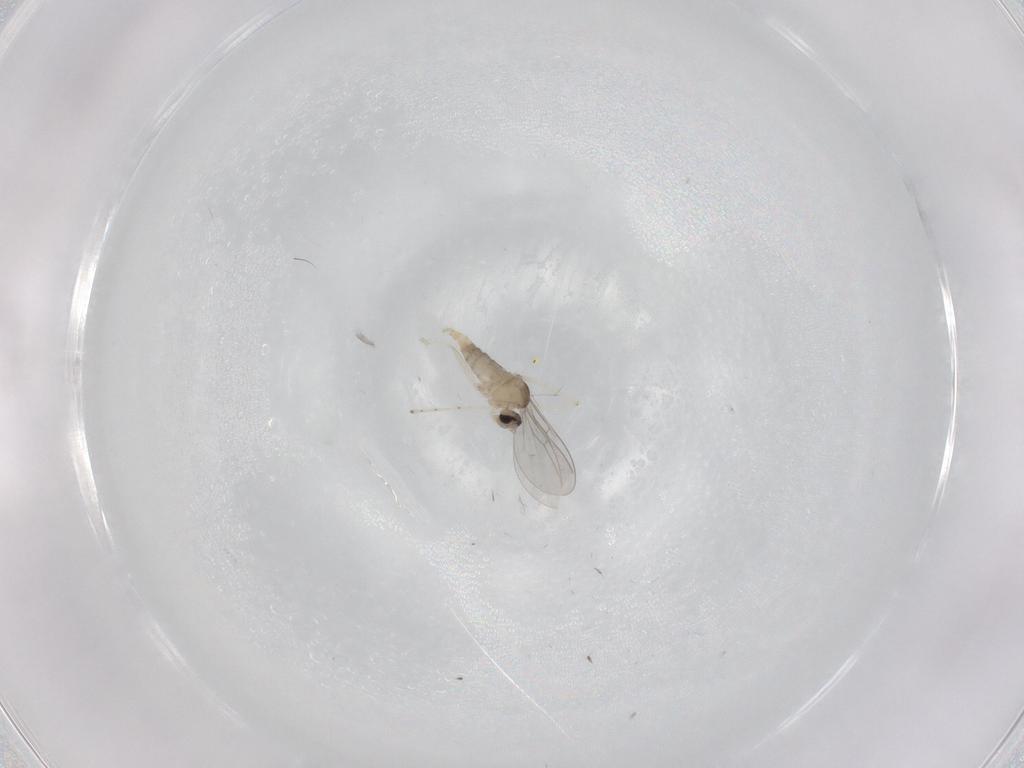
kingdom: Animalia
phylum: Arthropoda
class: Insecta
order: Diptera
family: Cecidomyiidae
